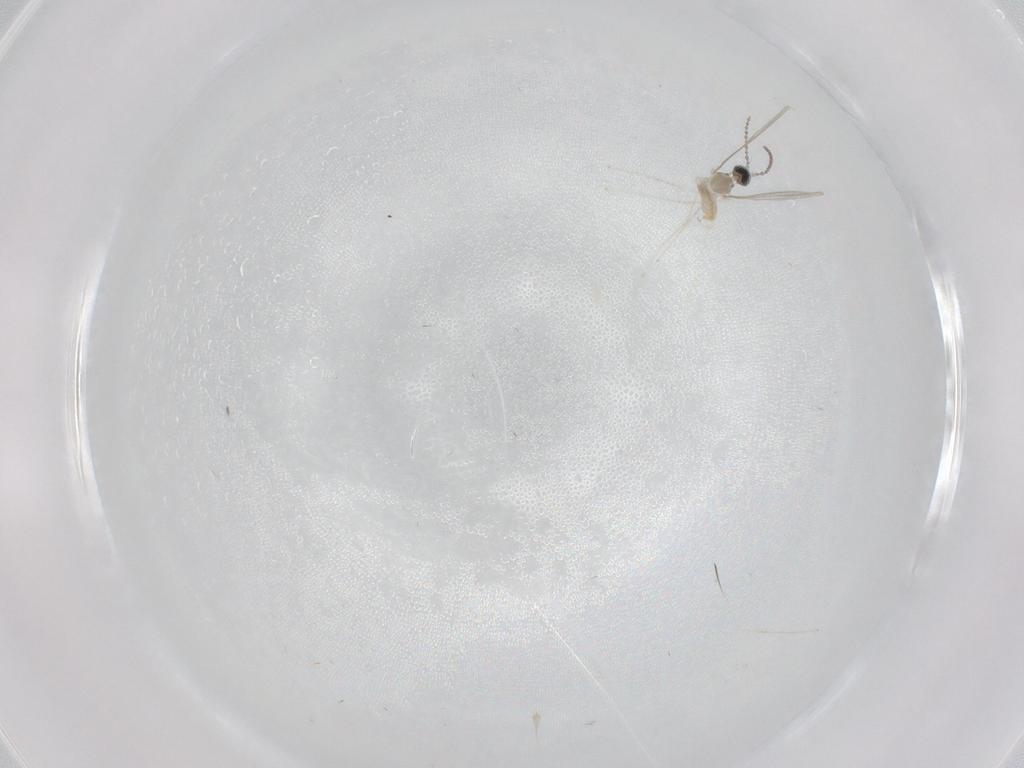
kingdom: Animalia
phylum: Arthropoda
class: Insecta
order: Diptera
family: Cecidomyiidae
